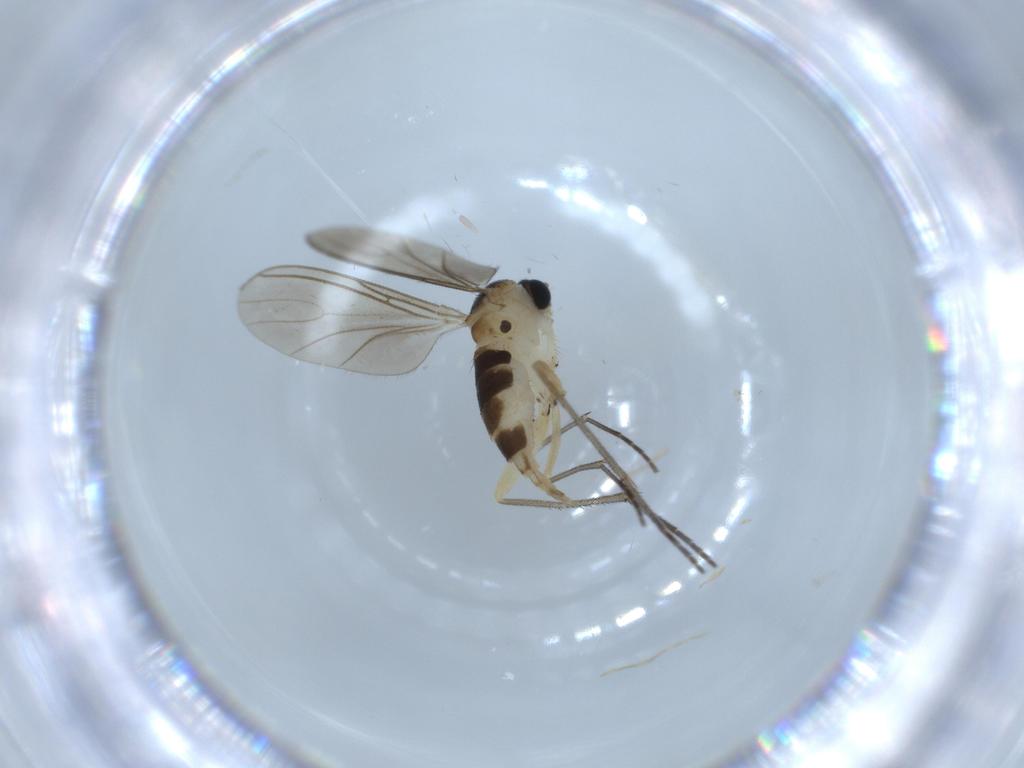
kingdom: Animalia
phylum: Arthropoda
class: Insecta
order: Diptera
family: Sciaridae
